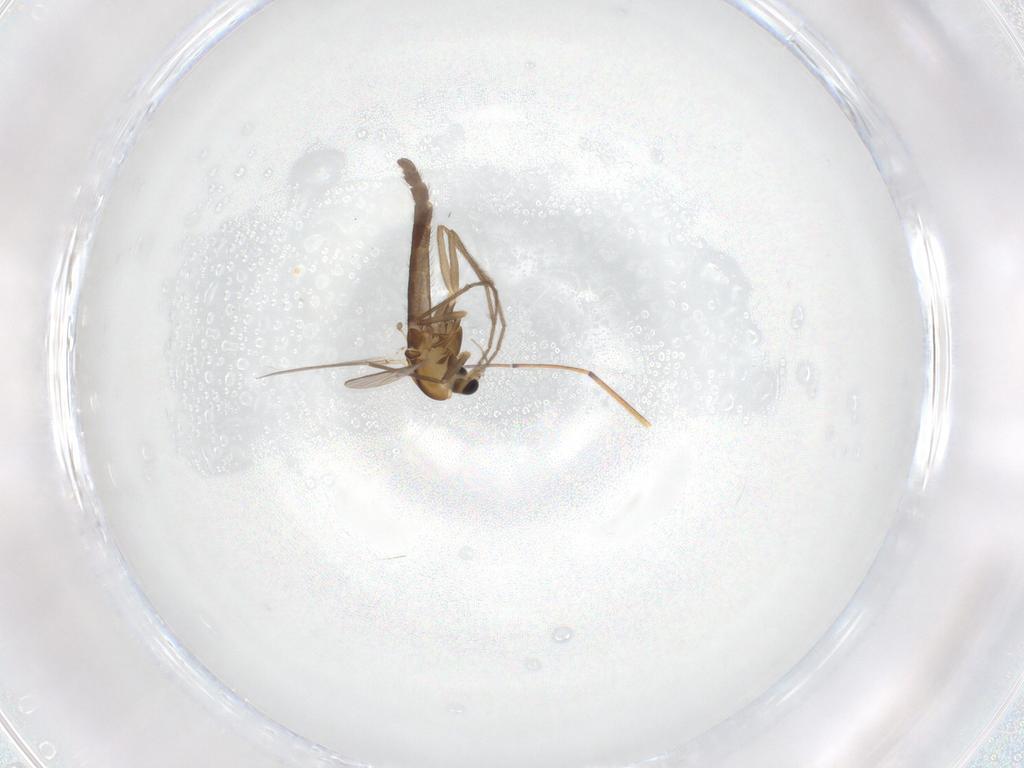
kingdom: Animalia
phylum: Arthropoda
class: Insecta
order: Diptera
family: Chironomidae
